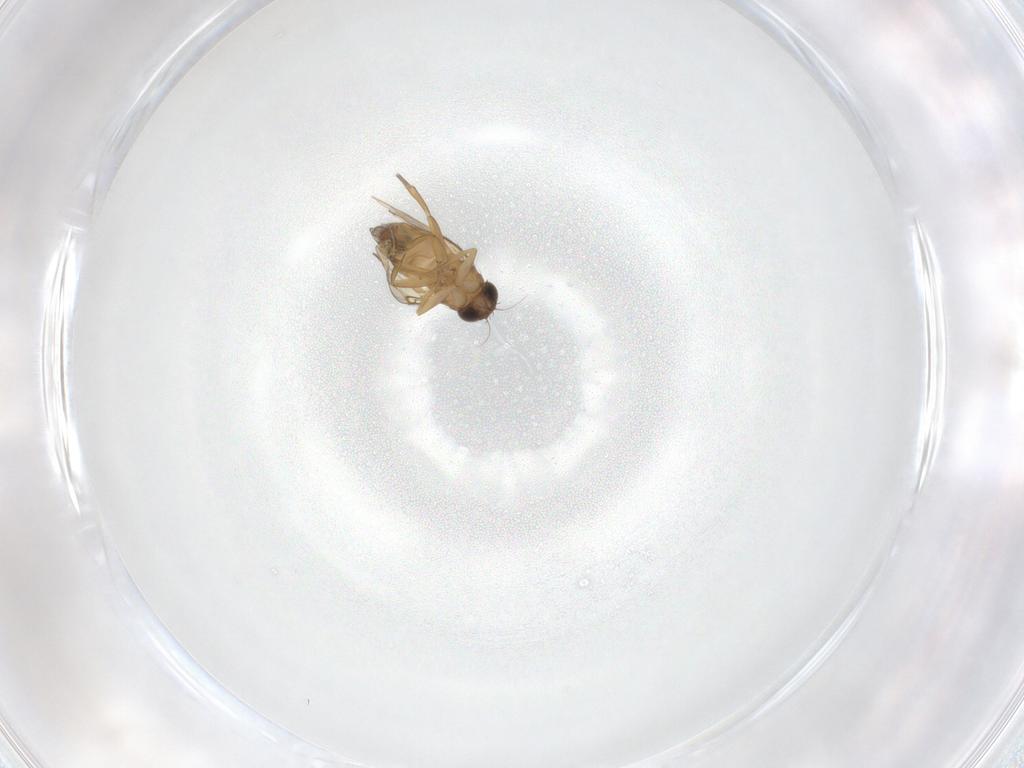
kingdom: Animalia
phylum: Arthropoda
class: Insecta
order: Diptera
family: Phoridae
